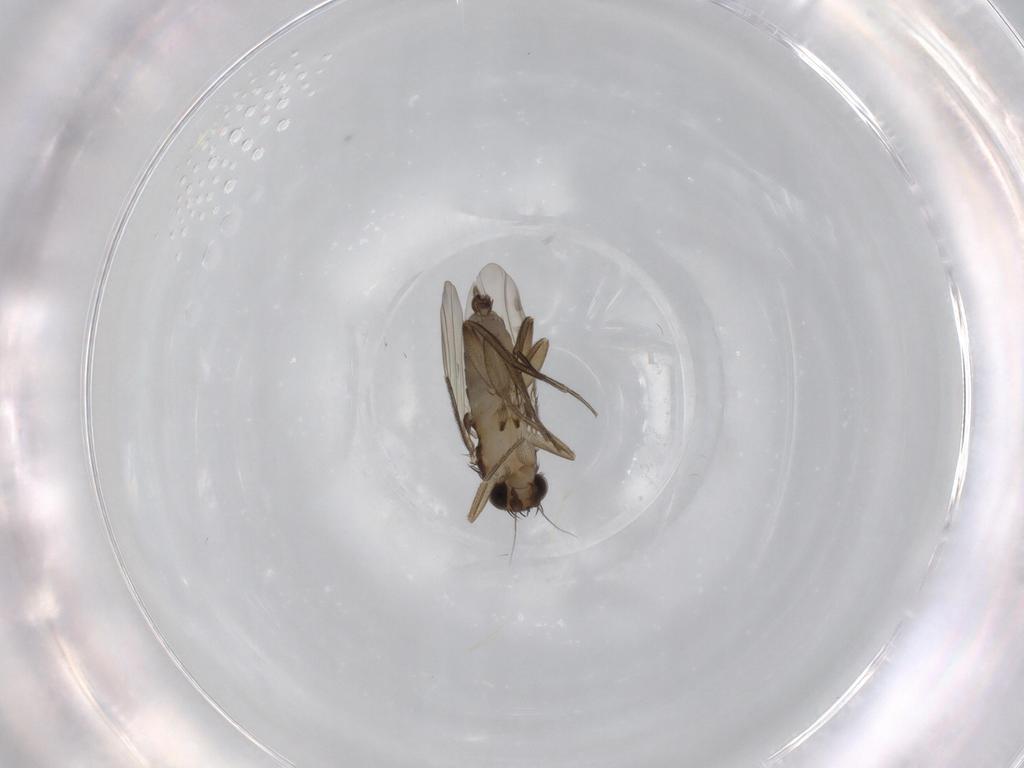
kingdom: Animalia
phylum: Arthropoda
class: Insecta
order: Diptera
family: Phoridae
